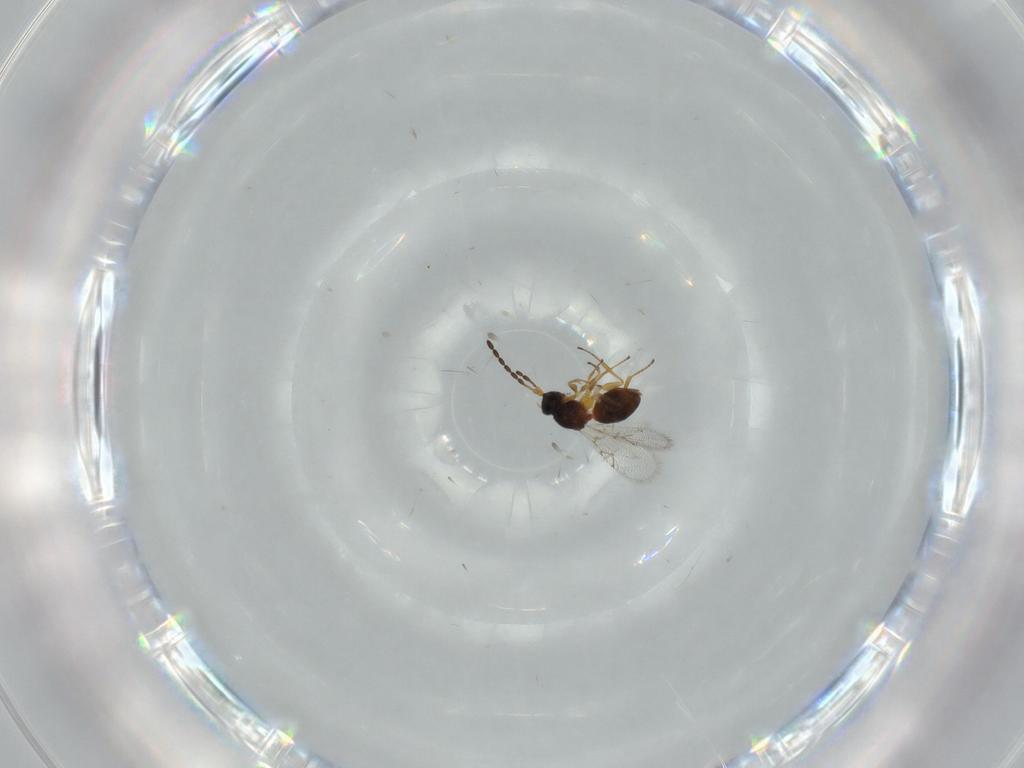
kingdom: Animalia
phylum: Arthropoda
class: Insecta
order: Hymenoptera
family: Figitidae
